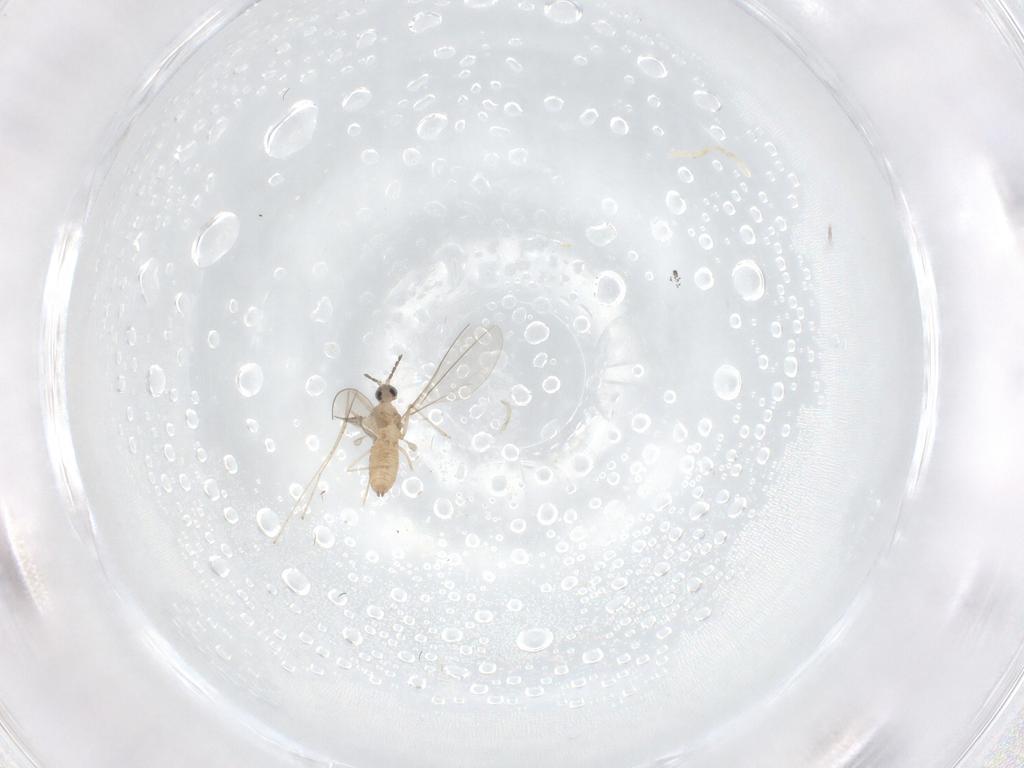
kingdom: Animalia
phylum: Arthropoda
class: Insecta
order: Diptera
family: Cecidomyiidae
